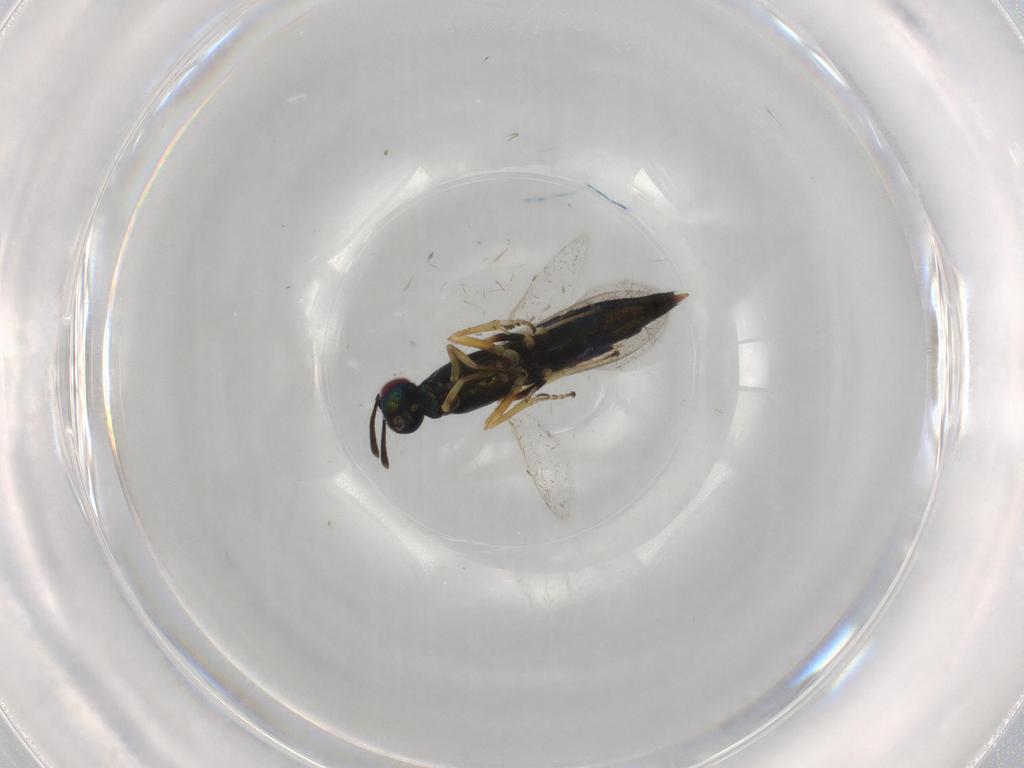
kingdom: Animalia
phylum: Arthropoda
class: Insecta
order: Hymenoptera
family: Eupelmidae
